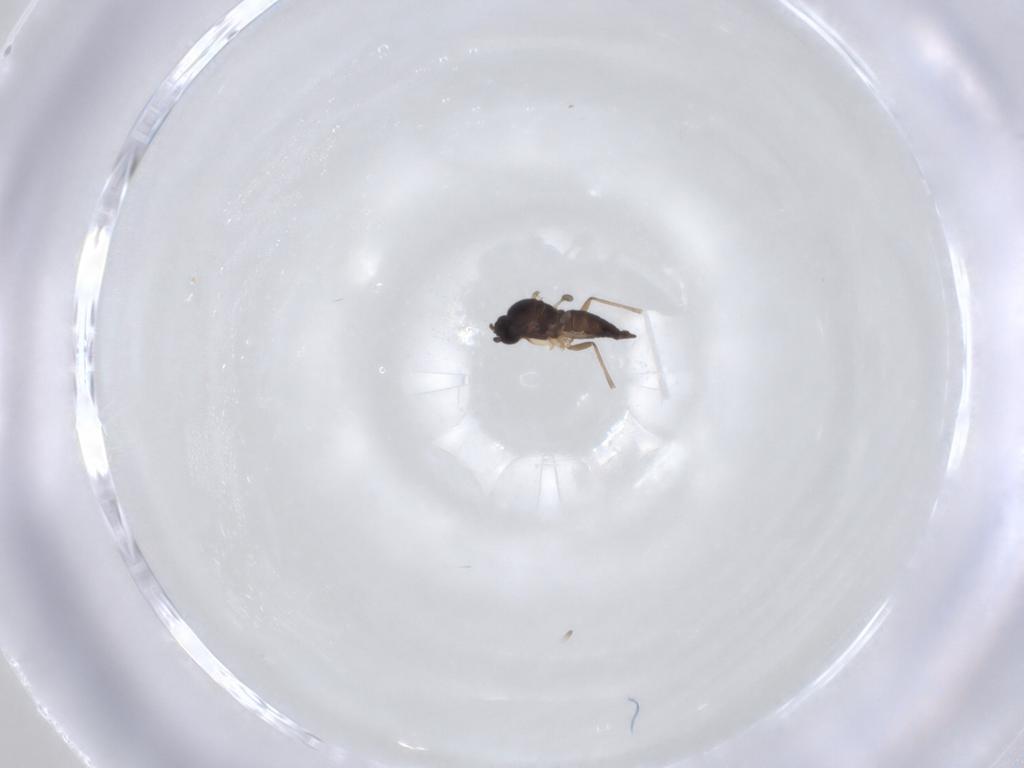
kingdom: Animalia
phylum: Arthropoda
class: Insecta
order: Diptera
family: Sciaridae
